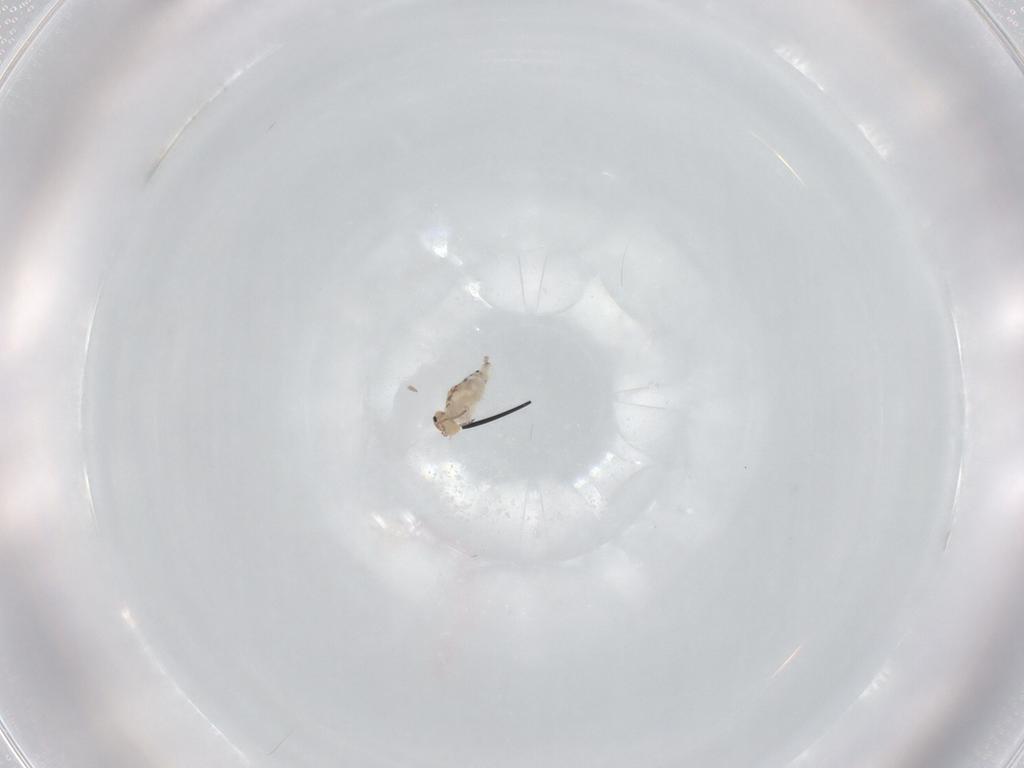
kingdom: Animalia
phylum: Arthropoda
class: Collembola
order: Symphypleona
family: Bourletiellidae
